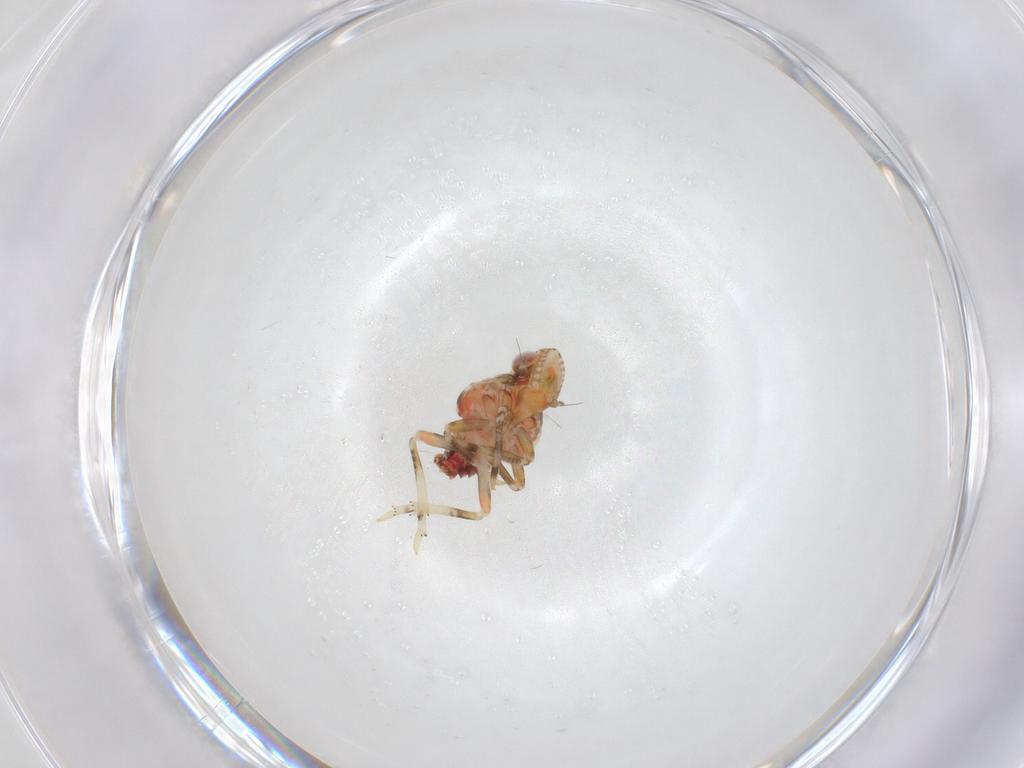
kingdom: Animalia
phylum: Arthropoda
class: Insecta
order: Hemiptera
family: Tropiduchidae
